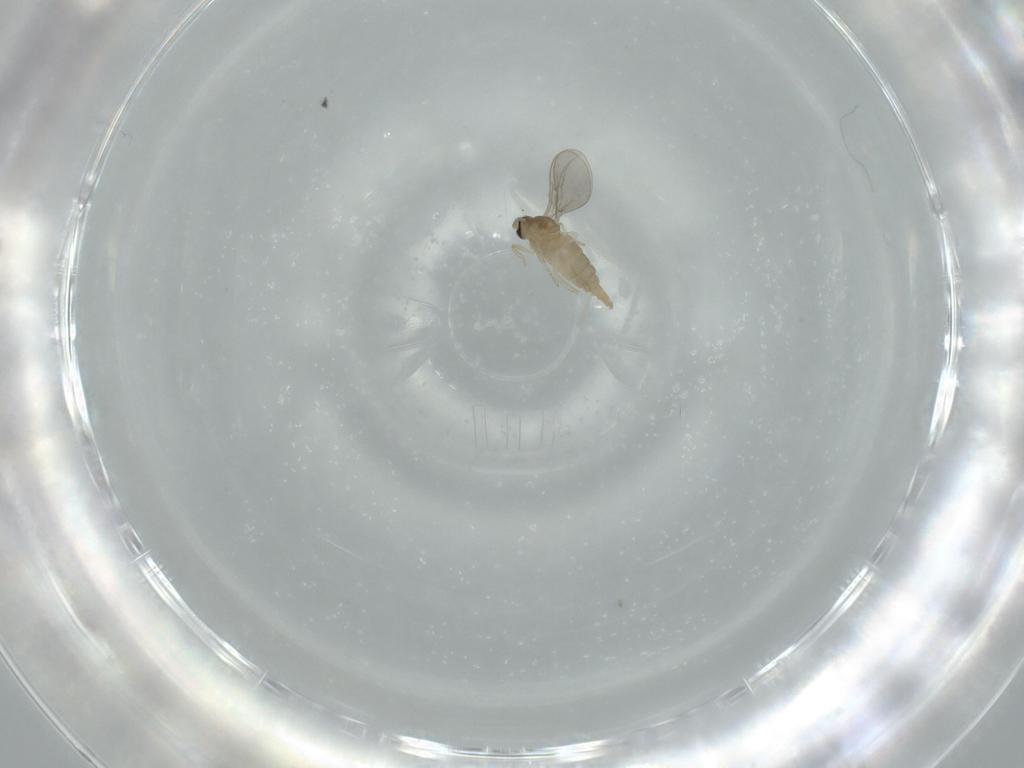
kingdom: Animalia
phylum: Arthropoda
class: Insecta
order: Diptera
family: Cecidomyiidae
